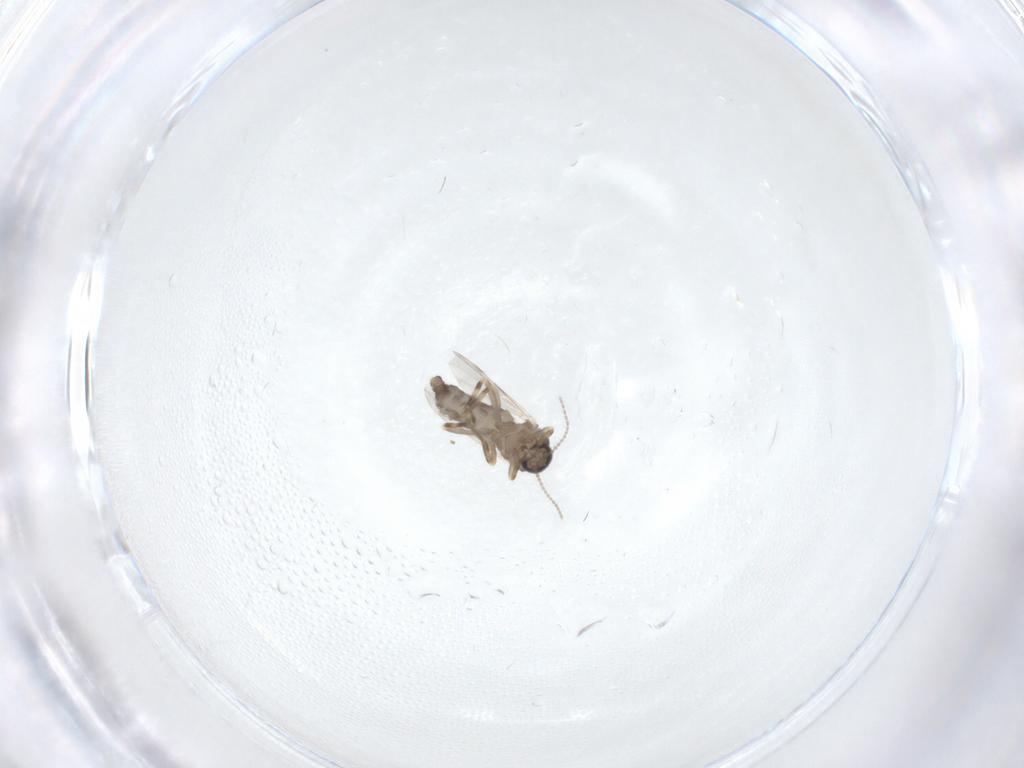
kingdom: Animalia
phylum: Arthropoda
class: Insecta
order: Diptera
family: Ceratopogonidae
